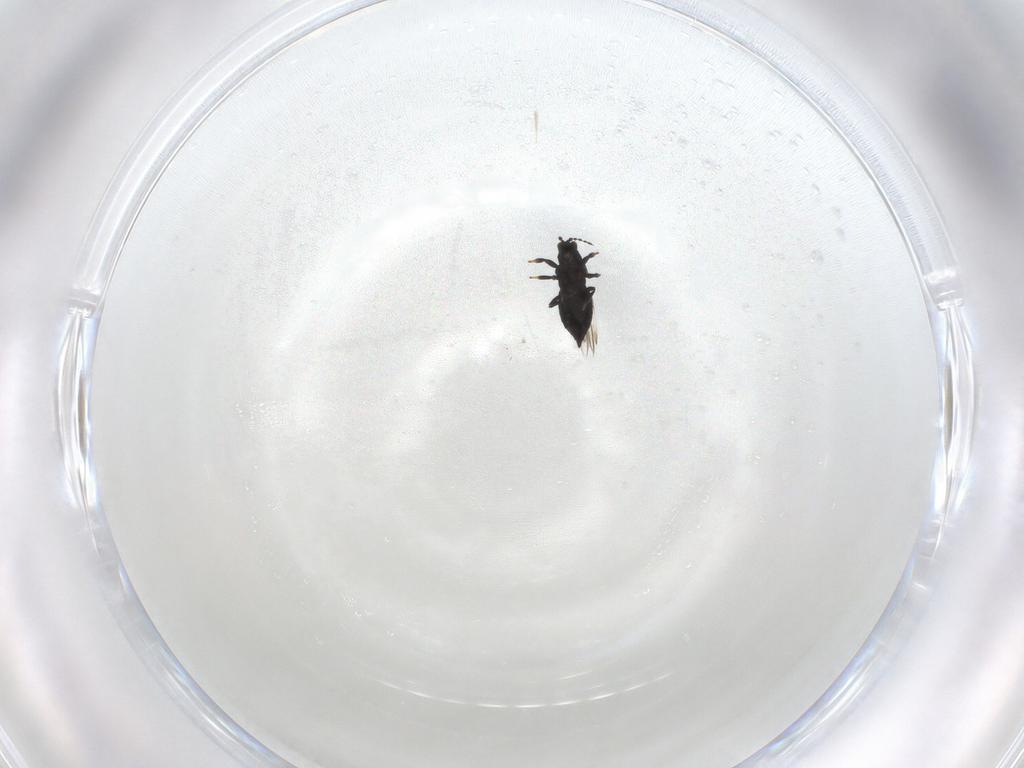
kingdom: Animalia
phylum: Arthropoda
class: Insecta
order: Thysanoptera
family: Thripidae
